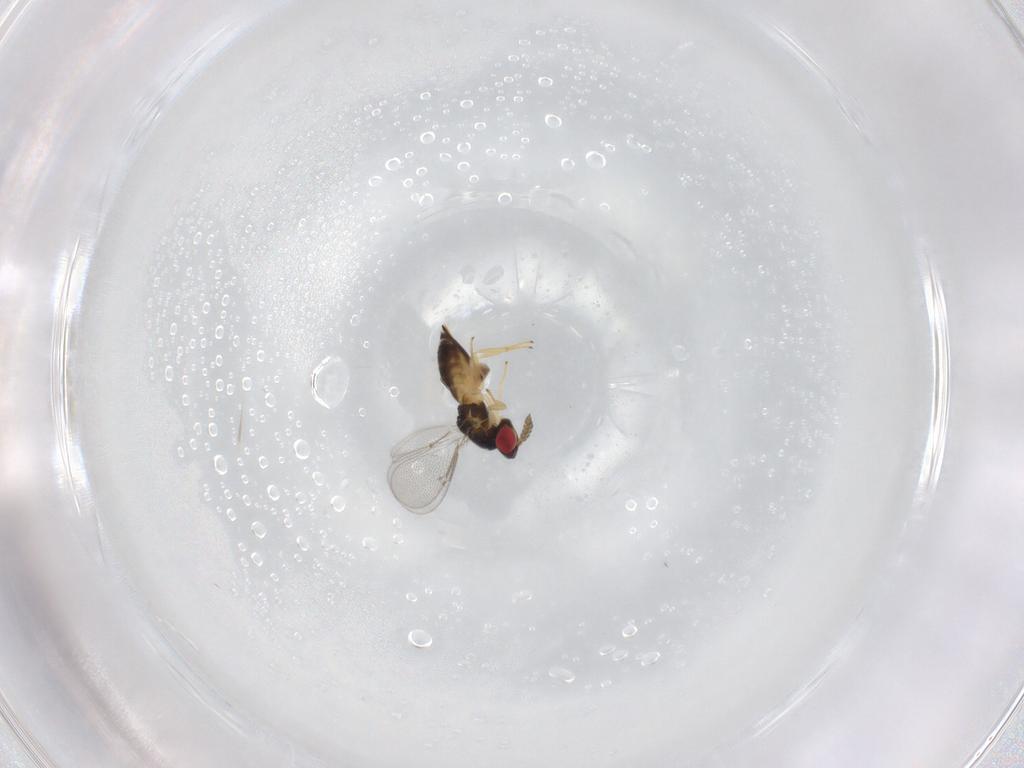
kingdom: Animalia
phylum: Arthropoda
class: Insecta
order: Hymenoptera
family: Eulophidae
